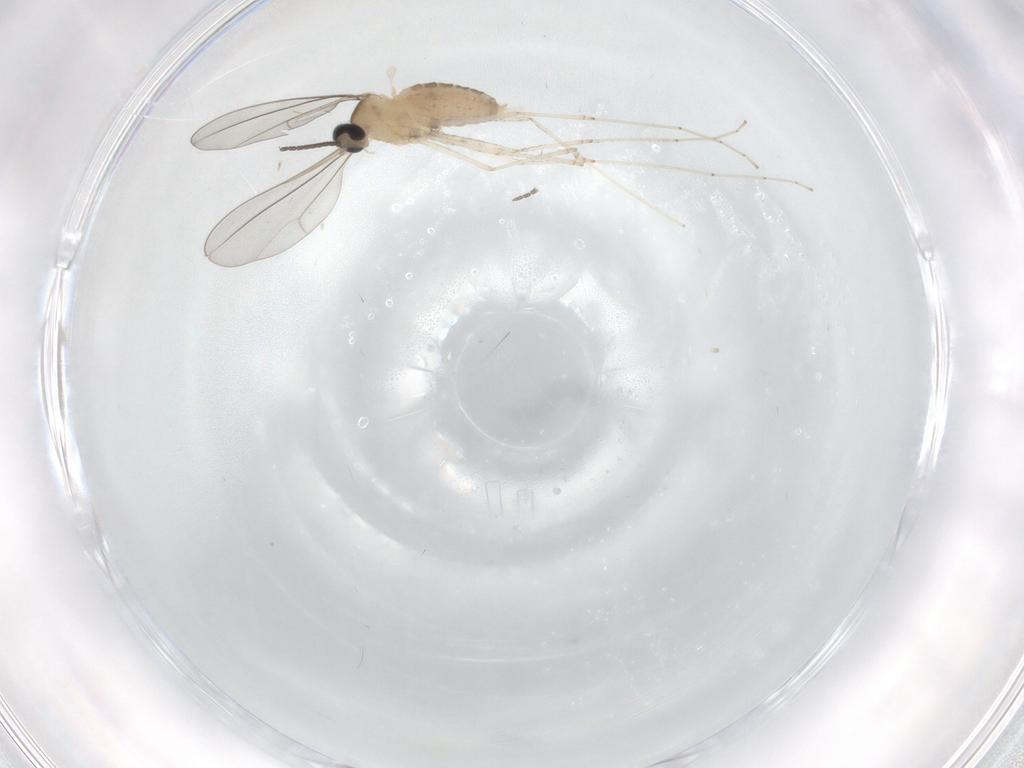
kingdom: Animalia
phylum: Arthropoda
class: Insecta
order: Diptera
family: Cecidomyiidae
